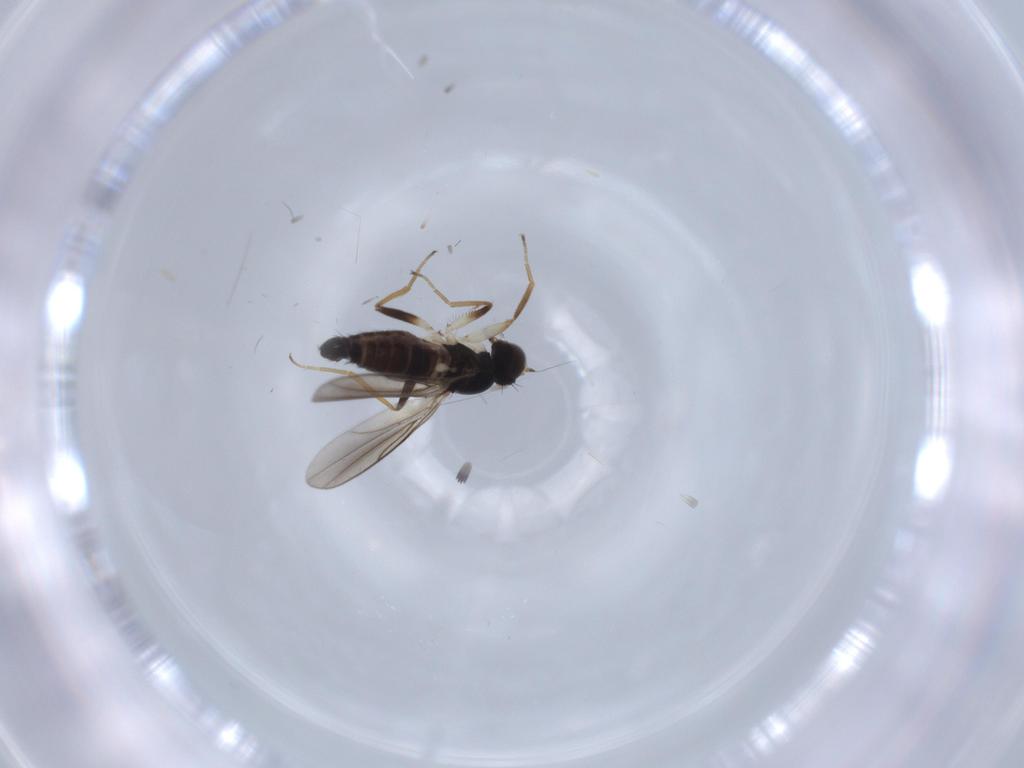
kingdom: Animalia
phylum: Arthropoda
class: Insecta
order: Diptera
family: Hybotidae
